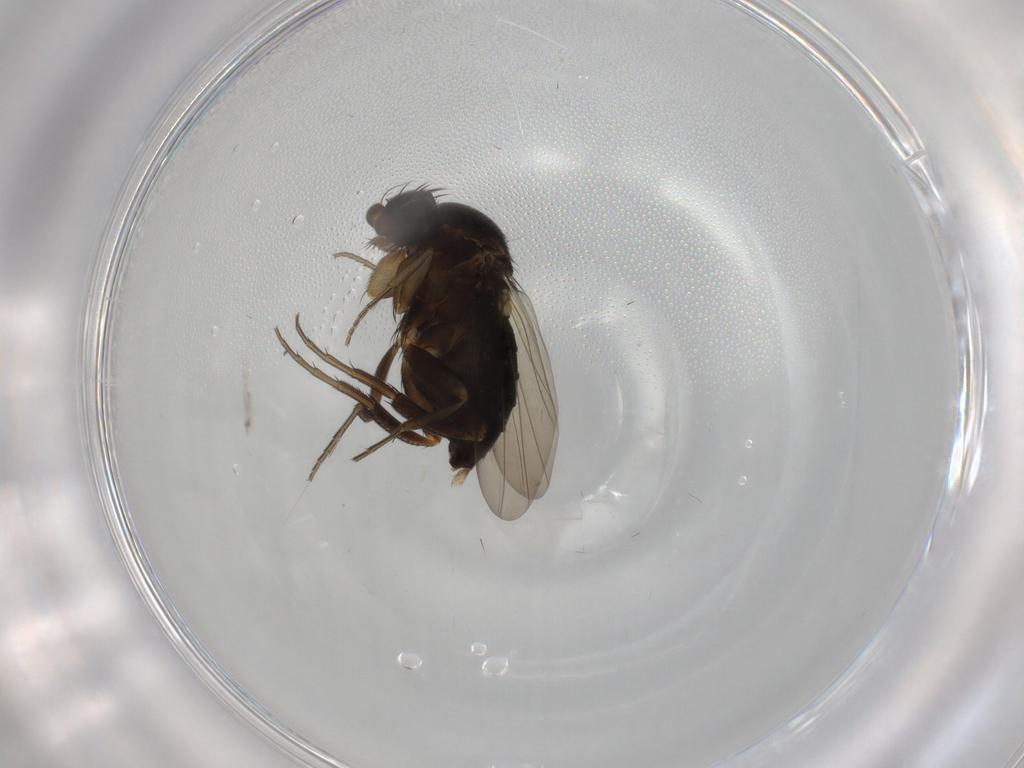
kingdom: Animalia
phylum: Arthropoda
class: Insecta
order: Diptera
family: Phoridae
